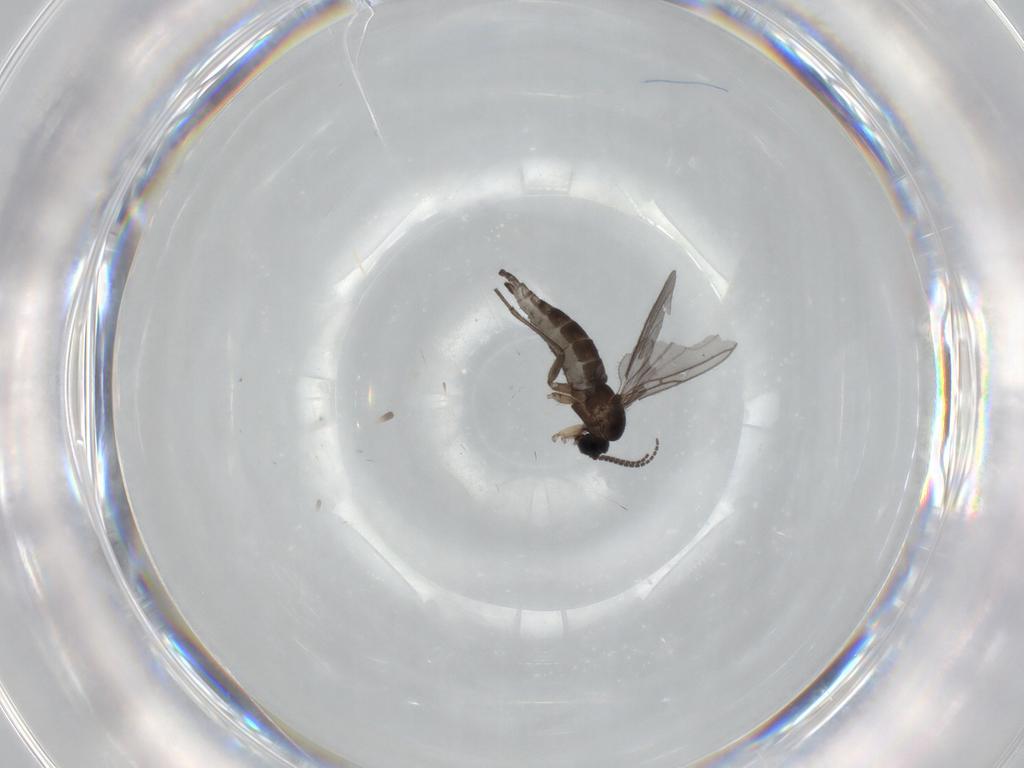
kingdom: Animalia
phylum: Arthropoda
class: Insecta
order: Diptera
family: Sciaridae
